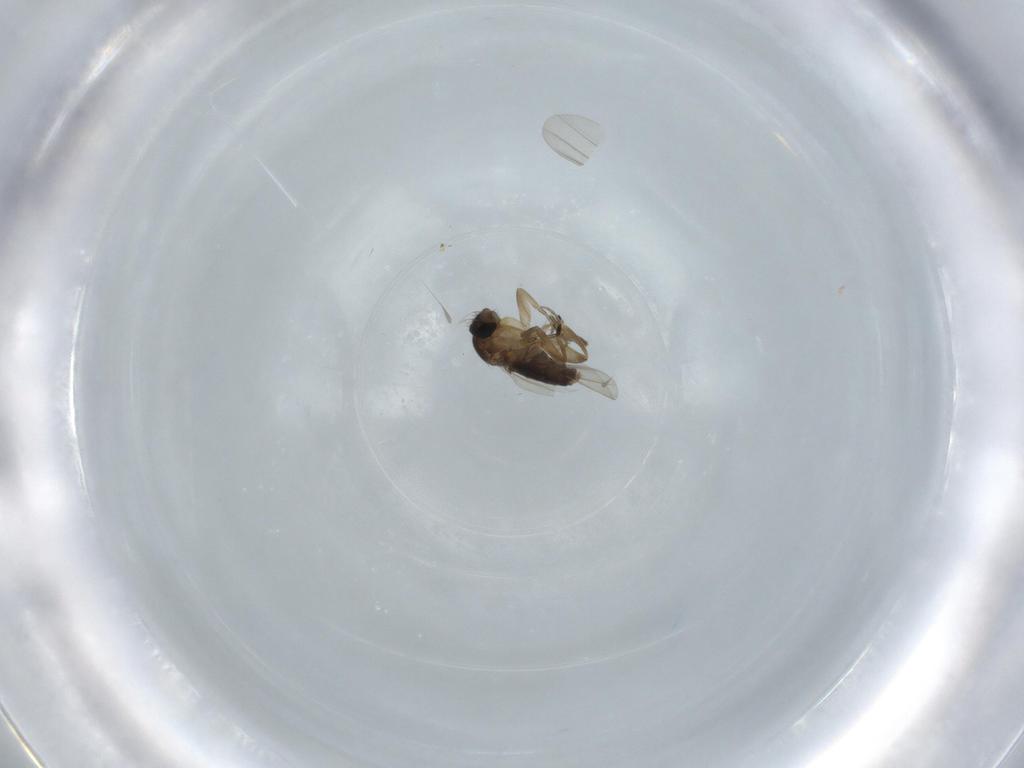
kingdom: Animalia
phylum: Arthropoda
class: Insecta
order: Diptera
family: Phoridae
